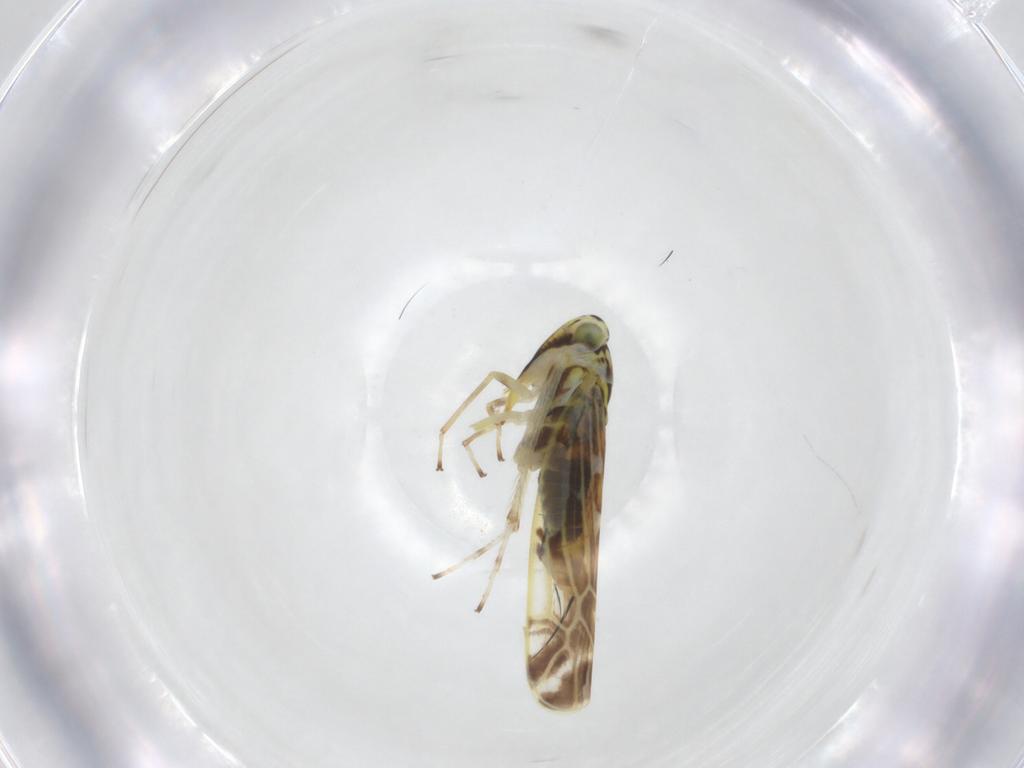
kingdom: Animalia
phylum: Arthropoda
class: Insecta
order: Hemiptera
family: Cicadellidae
